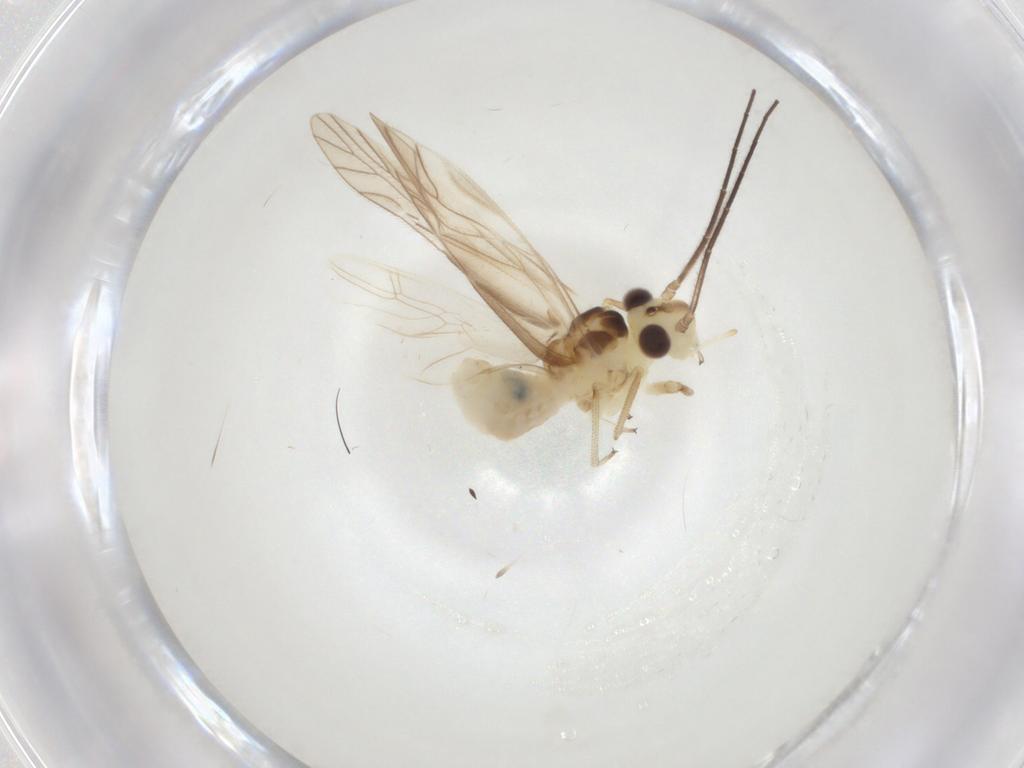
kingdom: Animalia
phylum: Arthropoda
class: Insecta
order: Psocodea
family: Caeciliusidae
